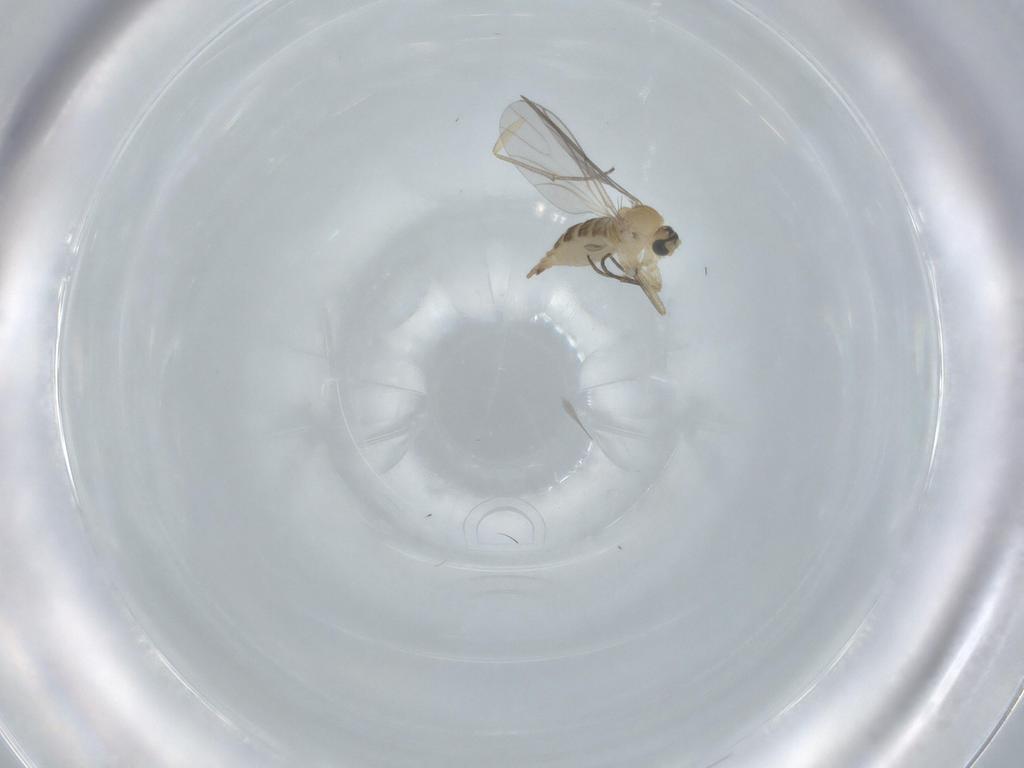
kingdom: Animalia
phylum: Arthropoda
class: Insecta
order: Diptera
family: Sciaridae
